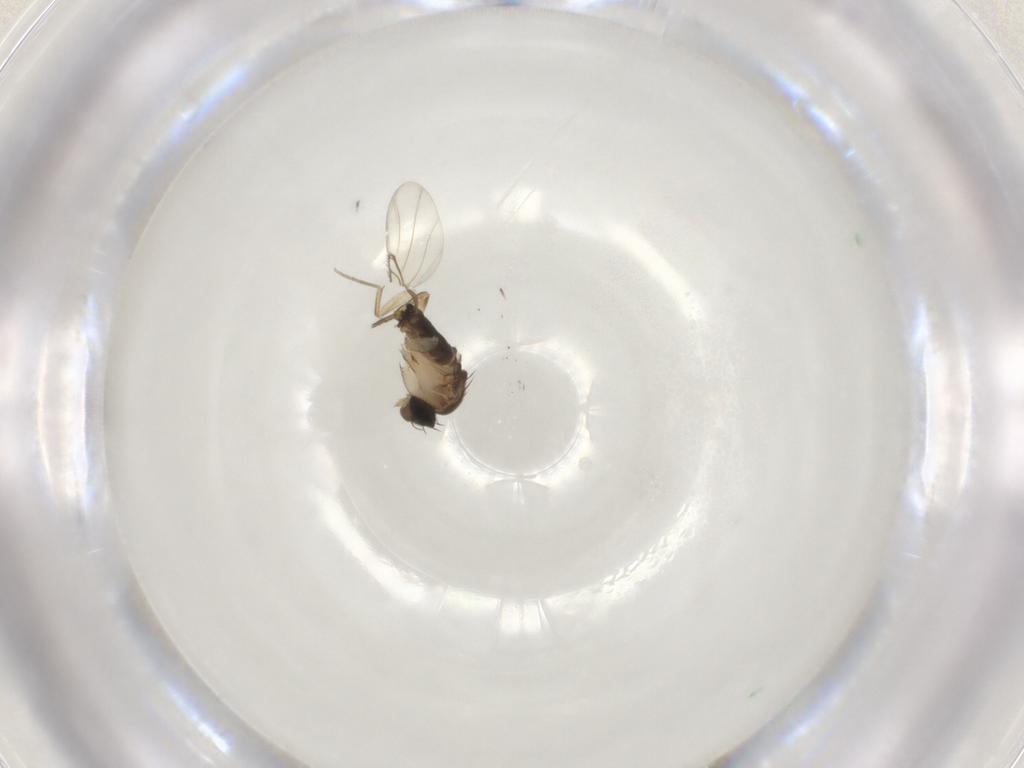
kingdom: Animalia
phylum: Arthropoda
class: Insecta
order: Diptera
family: Phoridae
